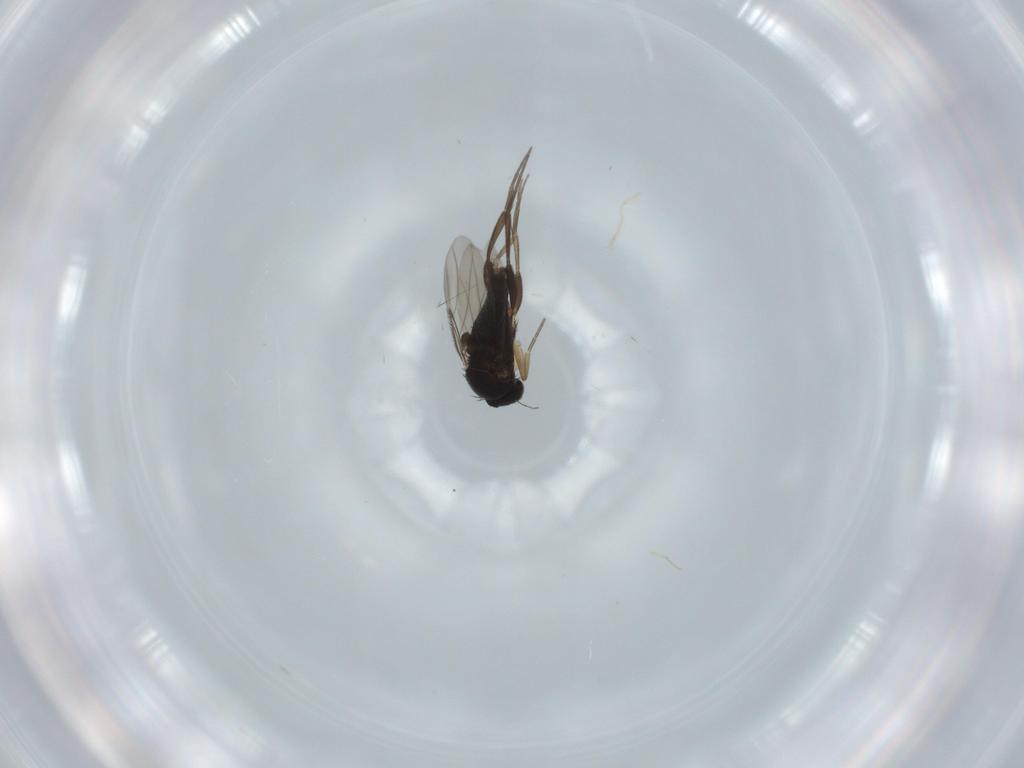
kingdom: Animalia
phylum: Arthropoda
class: Insecta
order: Diptera
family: Phoridae
